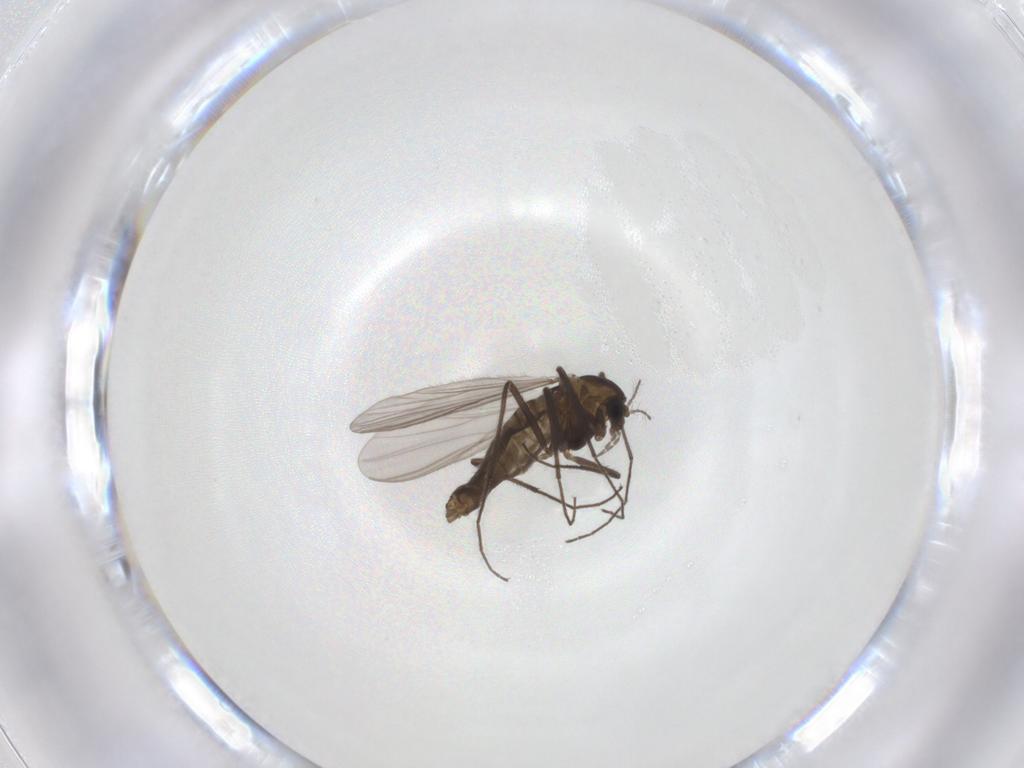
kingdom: Animalia
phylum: Arthropoda
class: Insecta
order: Diptera
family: Chironomidae
